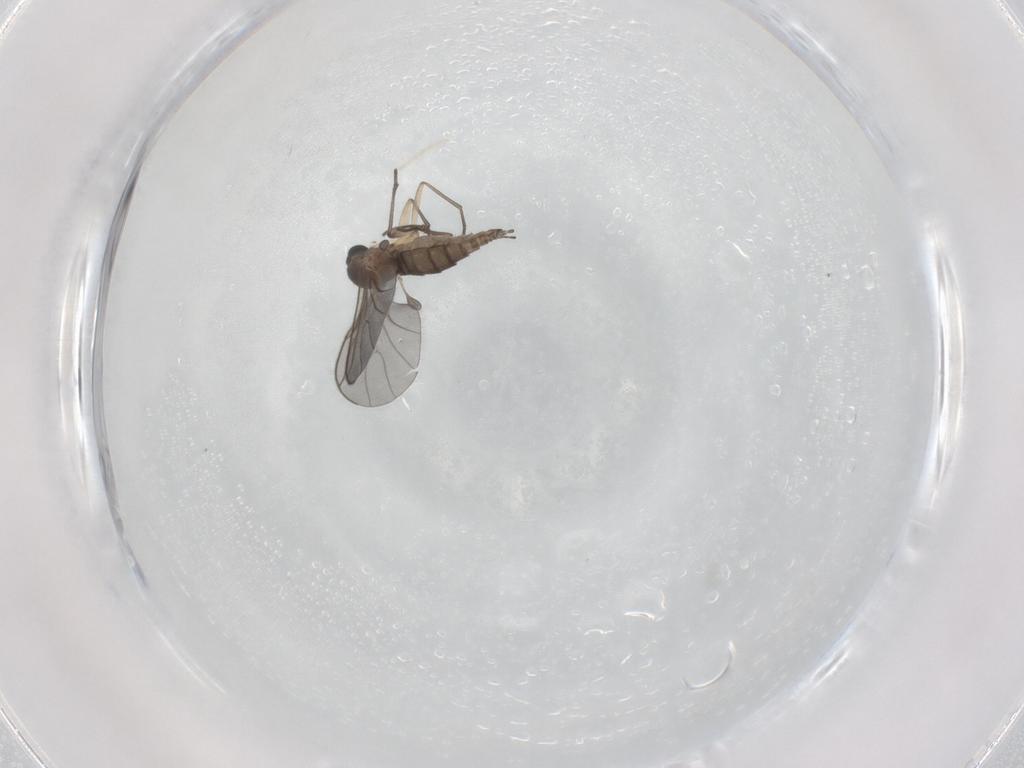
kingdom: Animalia
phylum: Arthropoda
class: Insecta
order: Diptera
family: Sciaridae
